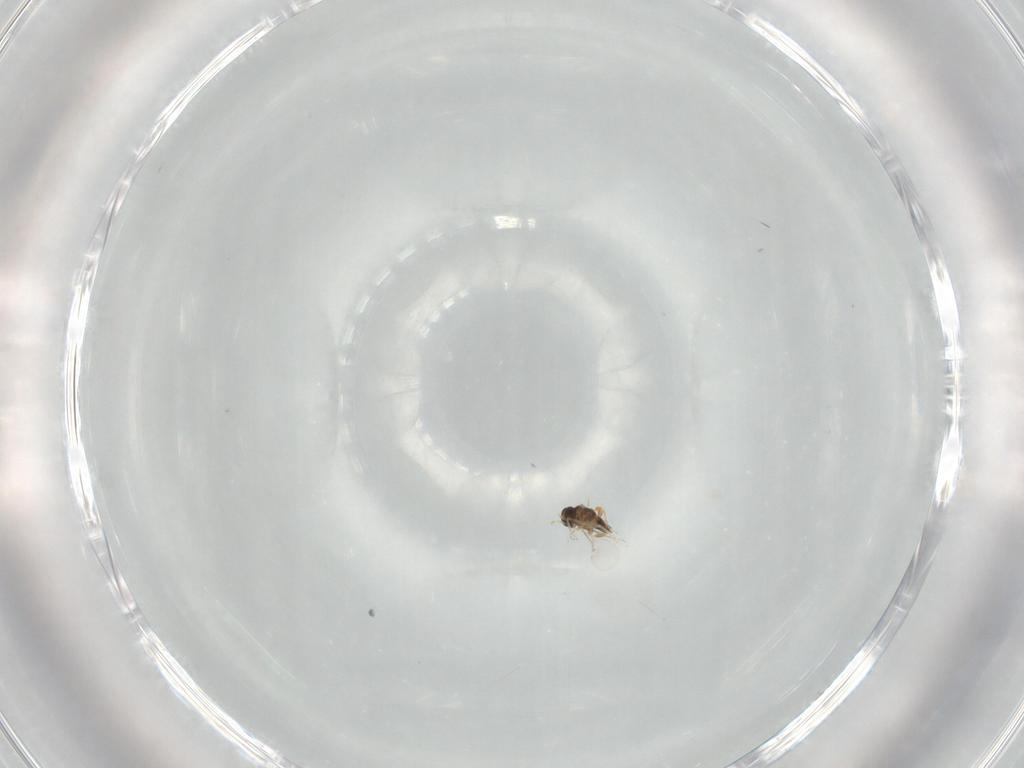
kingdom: Animalia
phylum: Arthropoda
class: Insecta
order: Hymenoptera
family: Encyrtidae
